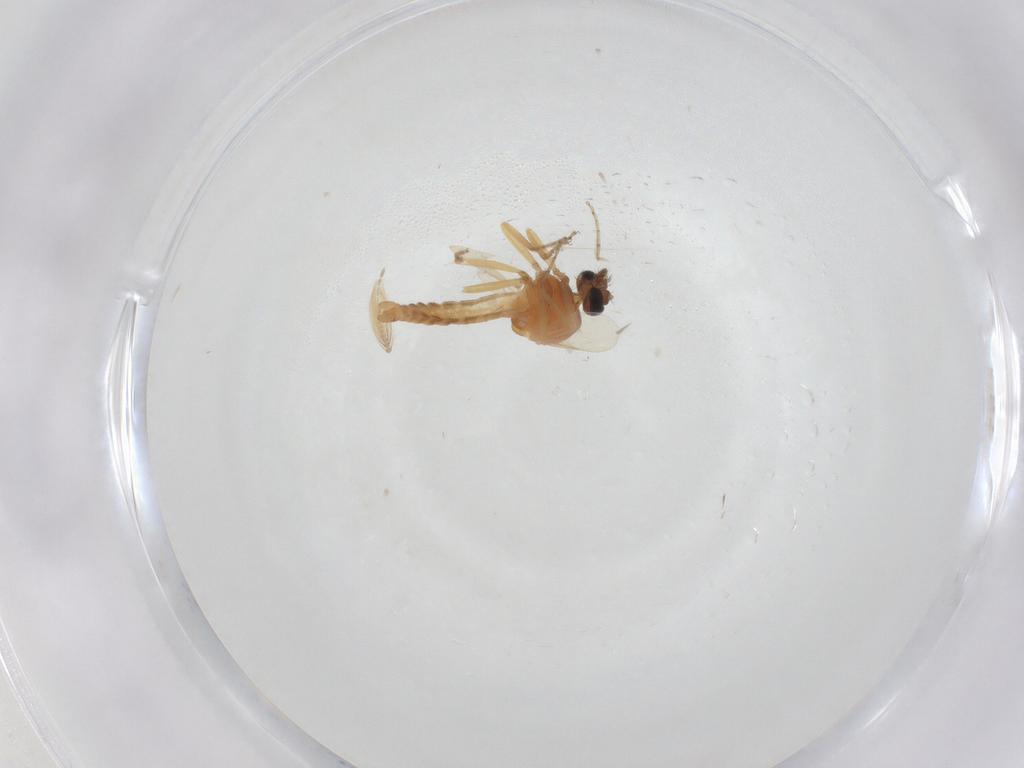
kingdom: Animalia
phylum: Arthropoda
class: Insecta
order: Diptera
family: Ceratopogonidae
